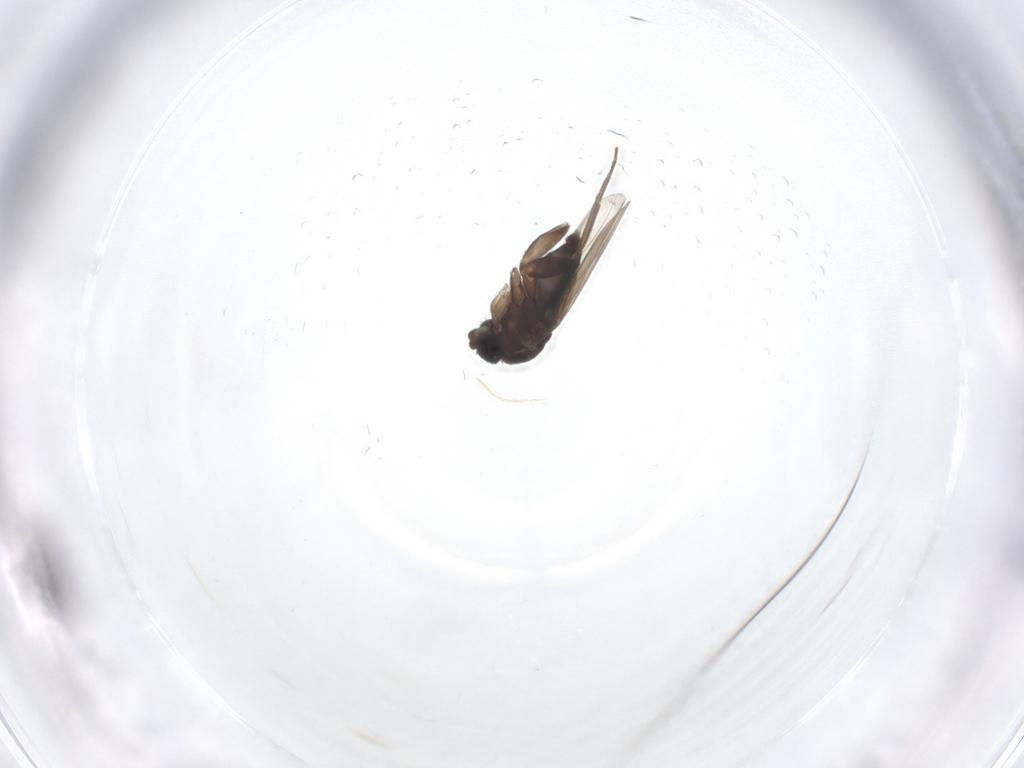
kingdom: Animalia
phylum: Arthropoda
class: Insecta
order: Diptera
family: Phoridae
